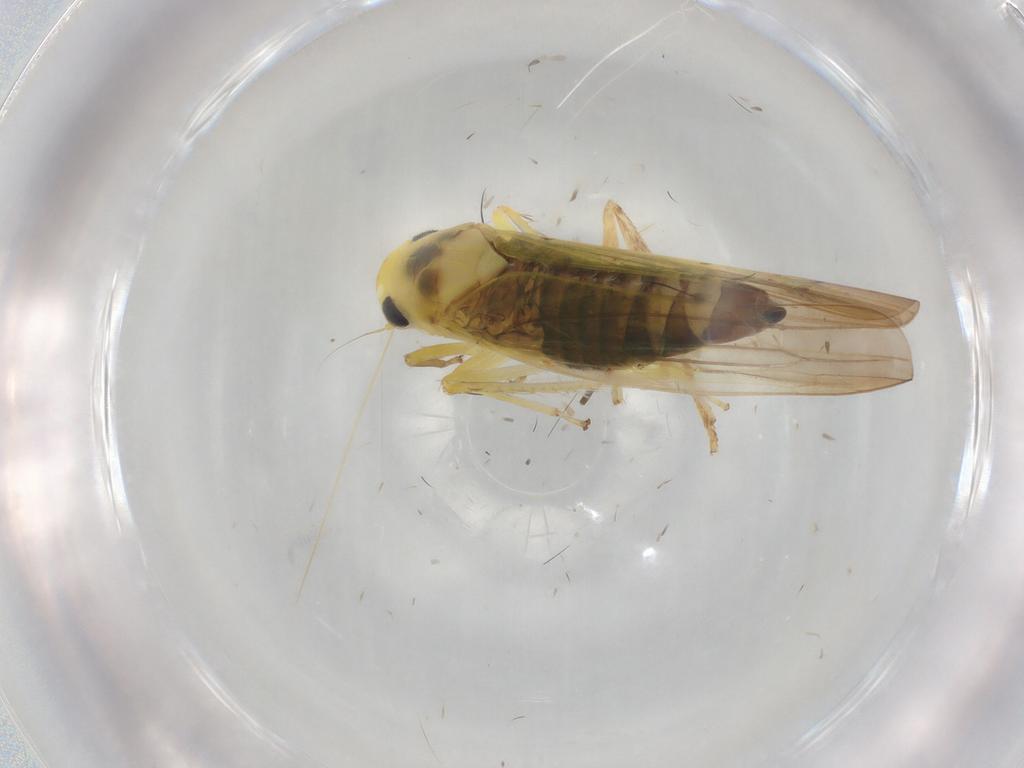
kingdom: Animalia
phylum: Arthropoda
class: Insecta
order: Hemiptera
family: Cicadellidae
